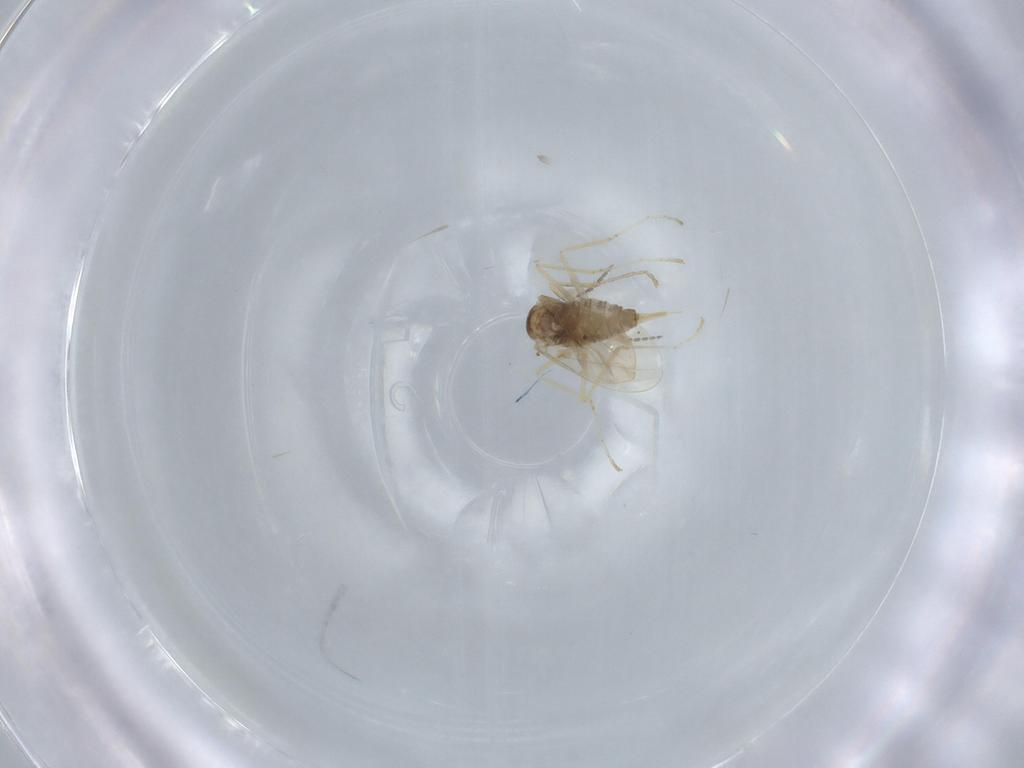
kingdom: Animalia
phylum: Arthropoda
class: Insecta
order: Diptera
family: Cecidomyiidae
